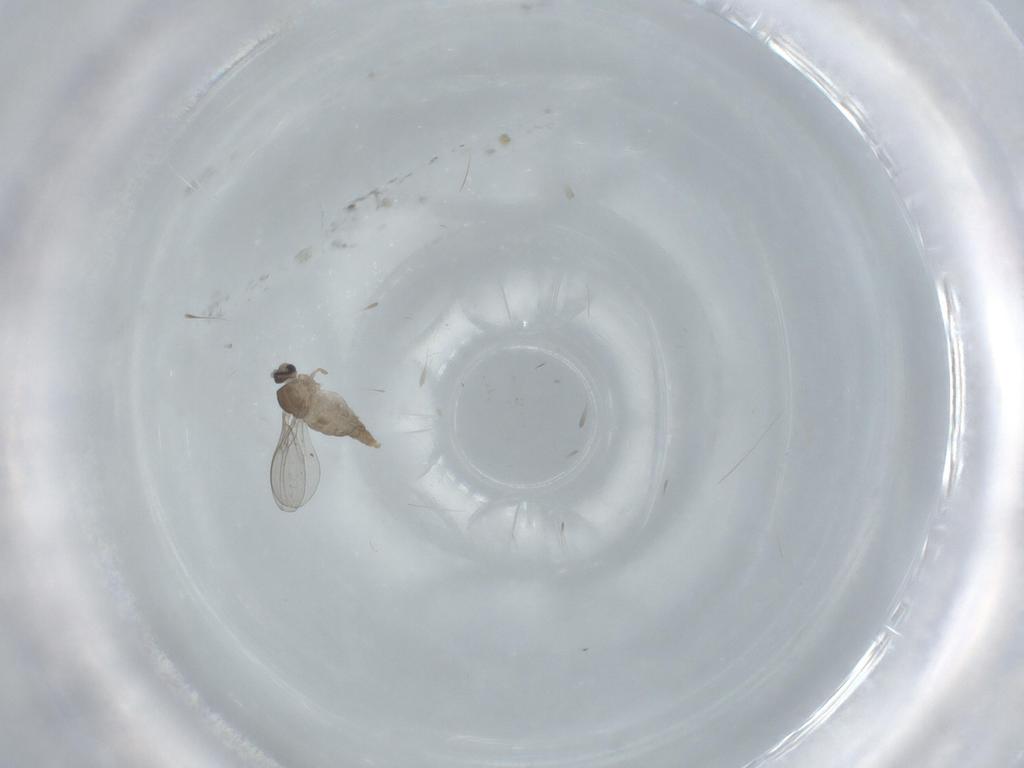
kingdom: Animalia
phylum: Arthropoda
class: Insecta
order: Diptera
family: Cecidomyiidae
